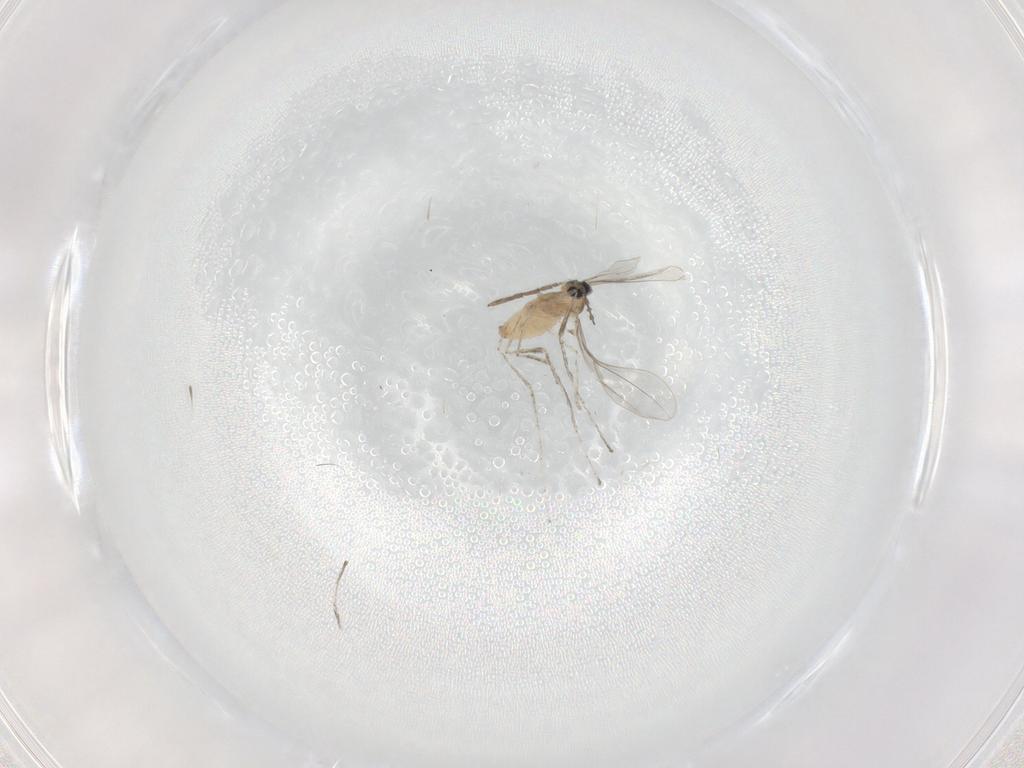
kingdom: Animalia
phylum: Arthropoda
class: Insecta
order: Diptera
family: Cecidomyiidae
